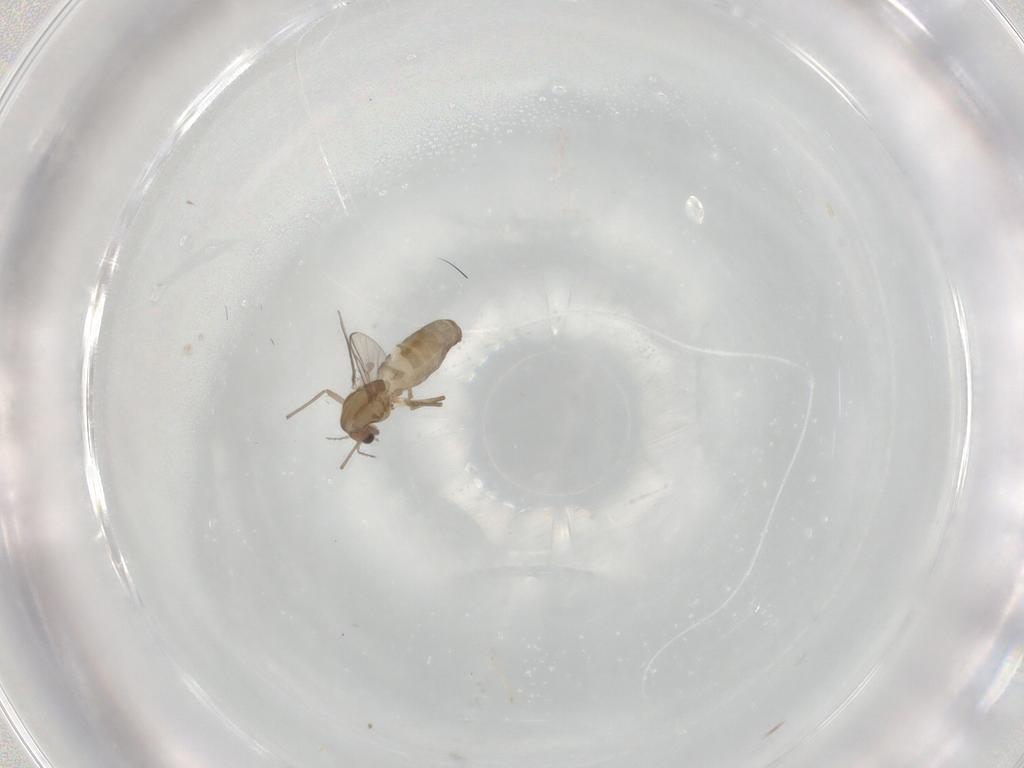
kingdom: Animalia
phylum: Arthropoda
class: Insecta
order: Diptera
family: Chironomidae
